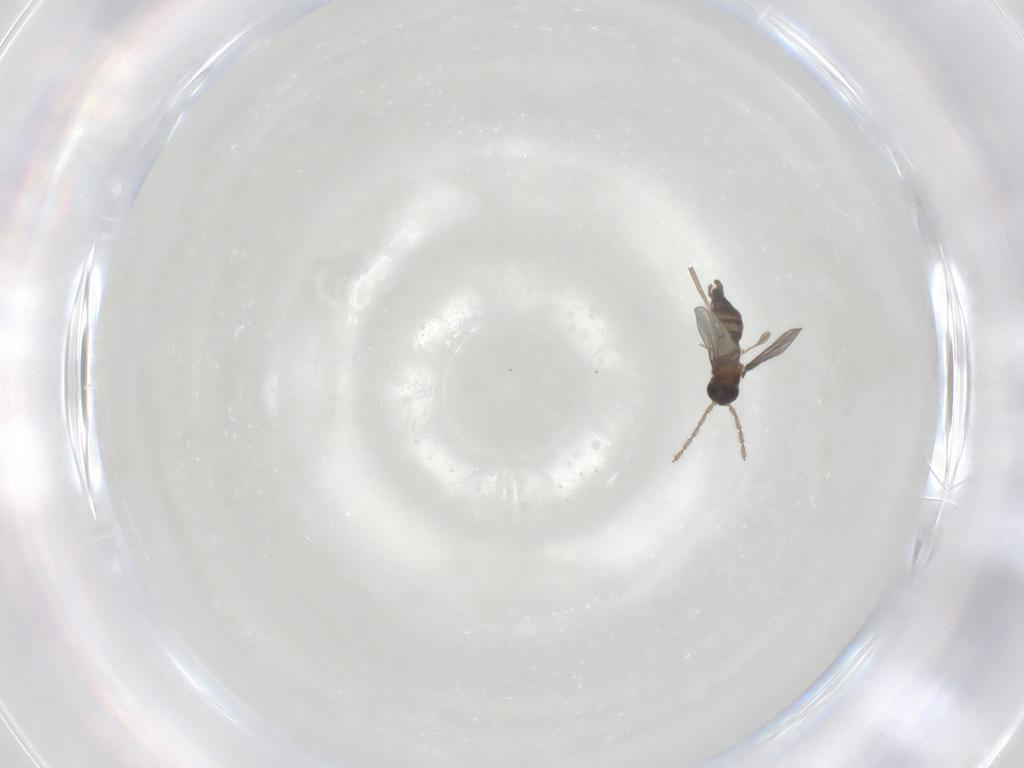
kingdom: Animalia
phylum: Arthropoda
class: Insecta
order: Diptera
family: Sciaridae
